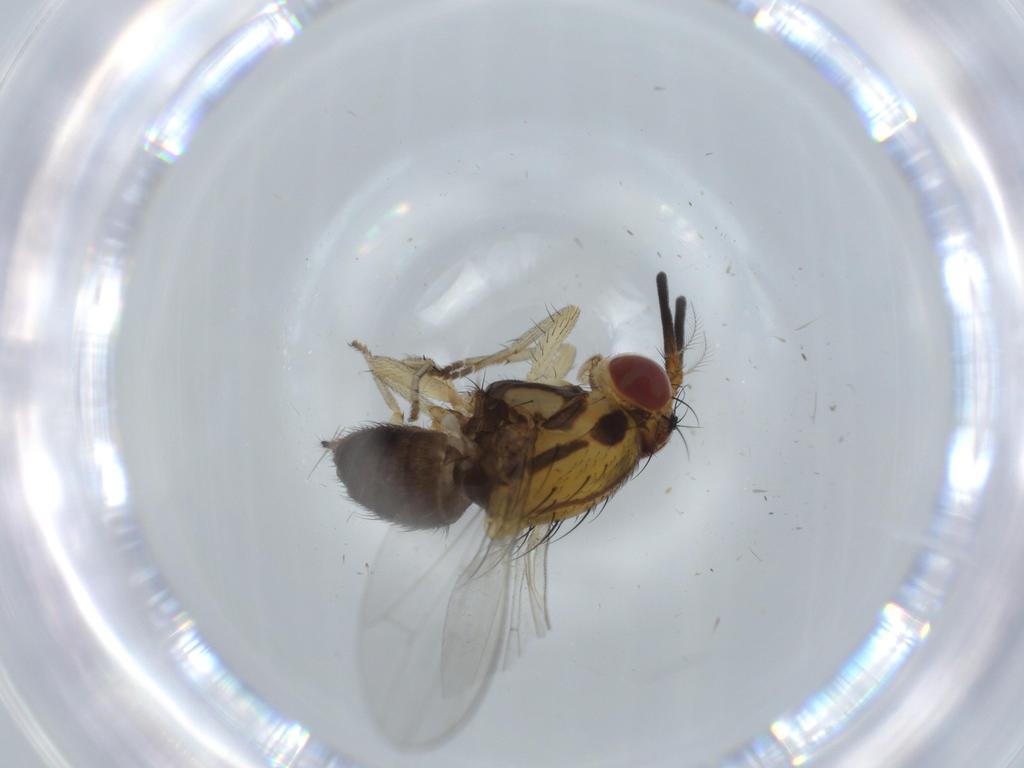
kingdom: Animalia
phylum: Arthropoda
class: Insecta
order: Diptera
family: Lauxaniidae
